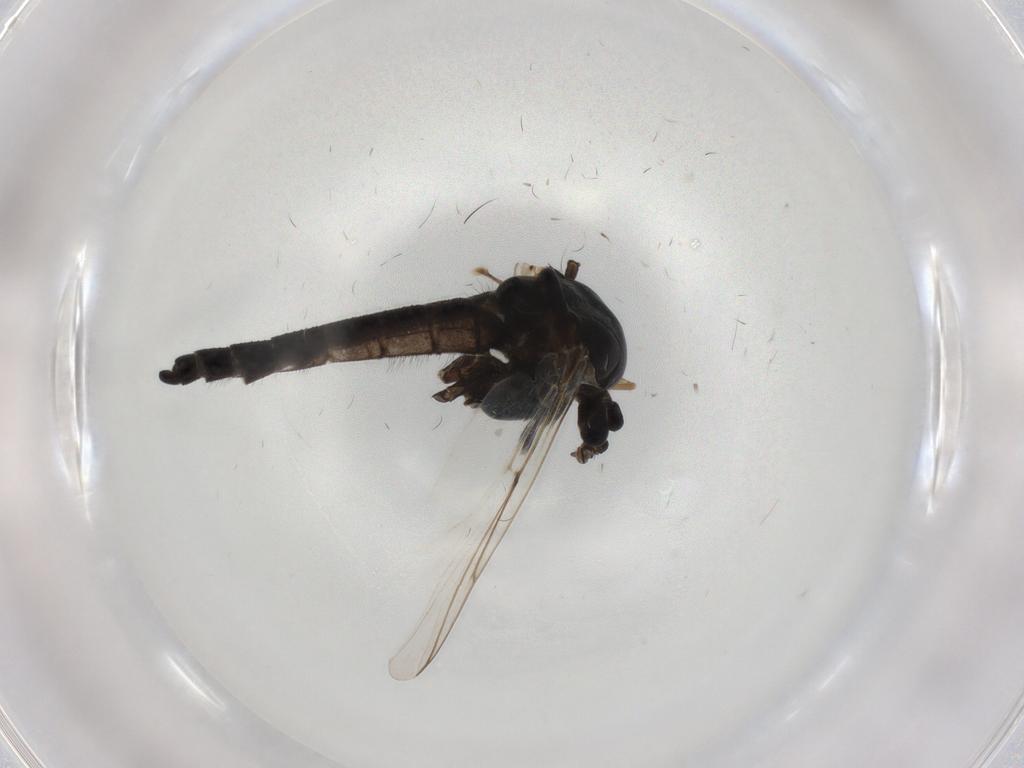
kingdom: Animalia
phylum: Arthropoda
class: Insecta
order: Diptera
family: Chironomidae
